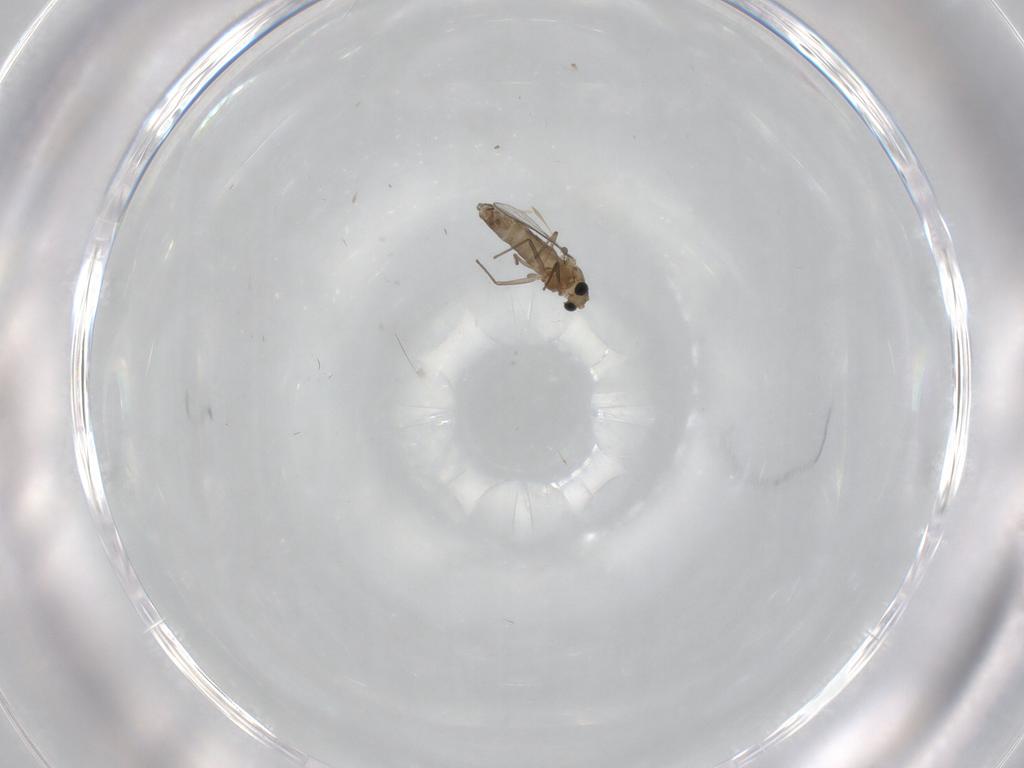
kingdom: Animalia
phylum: Arthropoda
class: Insecta
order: Diptera
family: Chironomidae
